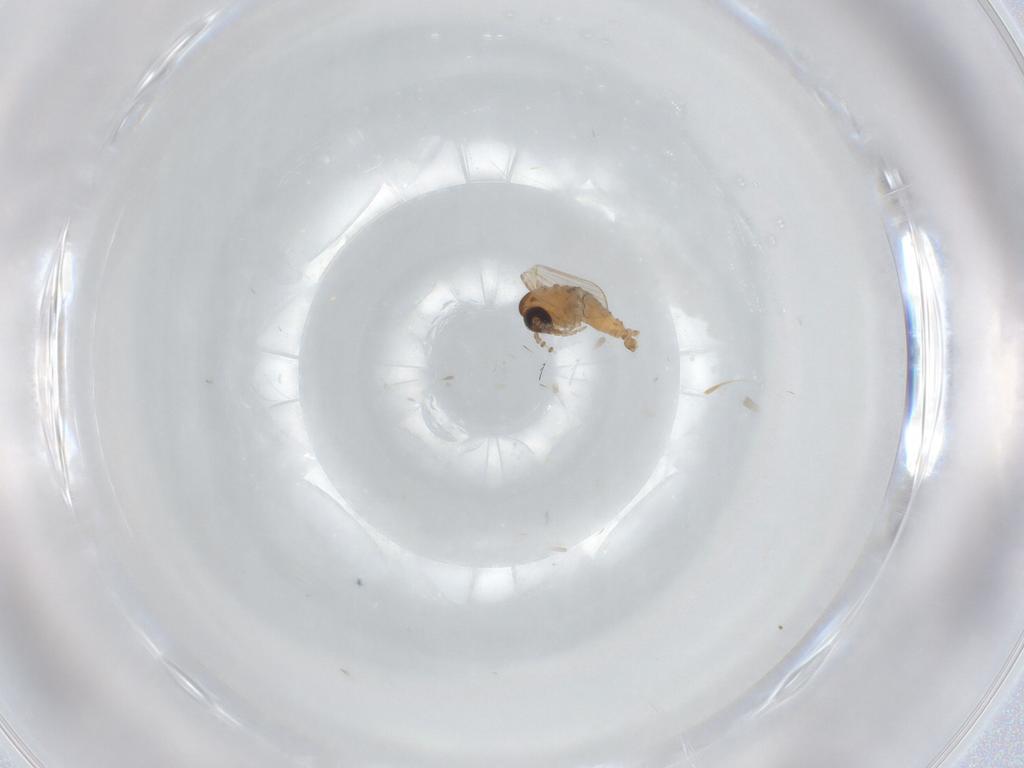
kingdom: Animalia
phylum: Arthropoda
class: Insecta
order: Diptera
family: Psychodidae
